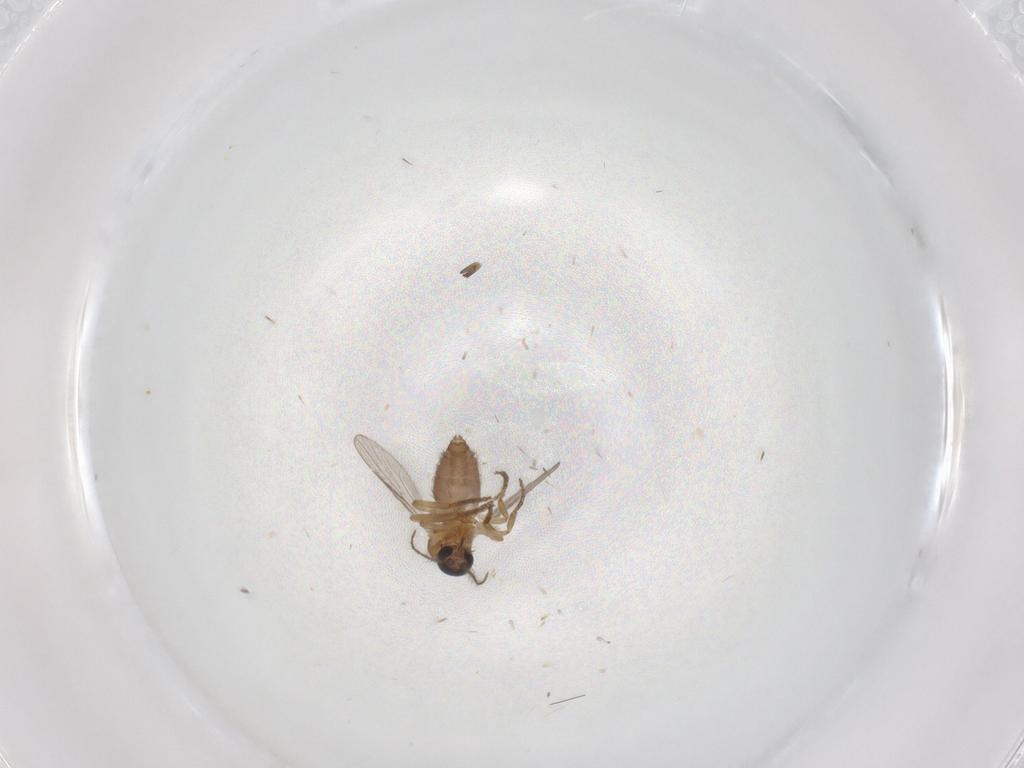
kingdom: Animalia
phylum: Arthropoda
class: Insecta
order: Diptera
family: Ceratopogonidae
